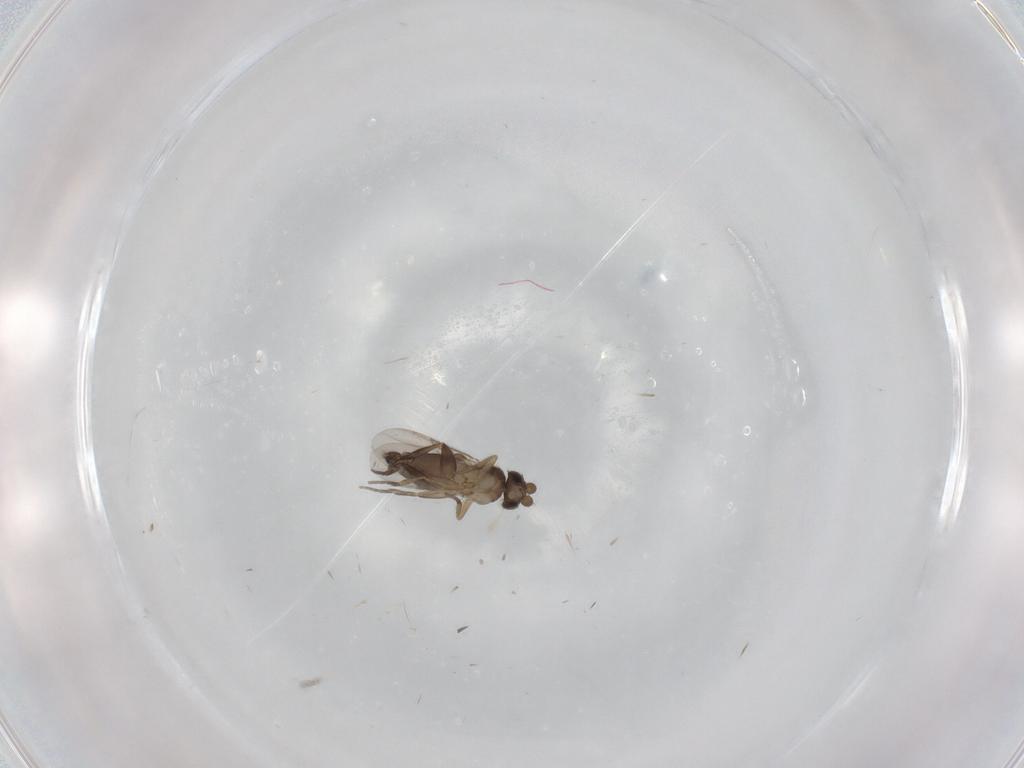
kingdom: Animalia
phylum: Arthropoda
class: Insecta
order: Diptera
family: Phoridae
